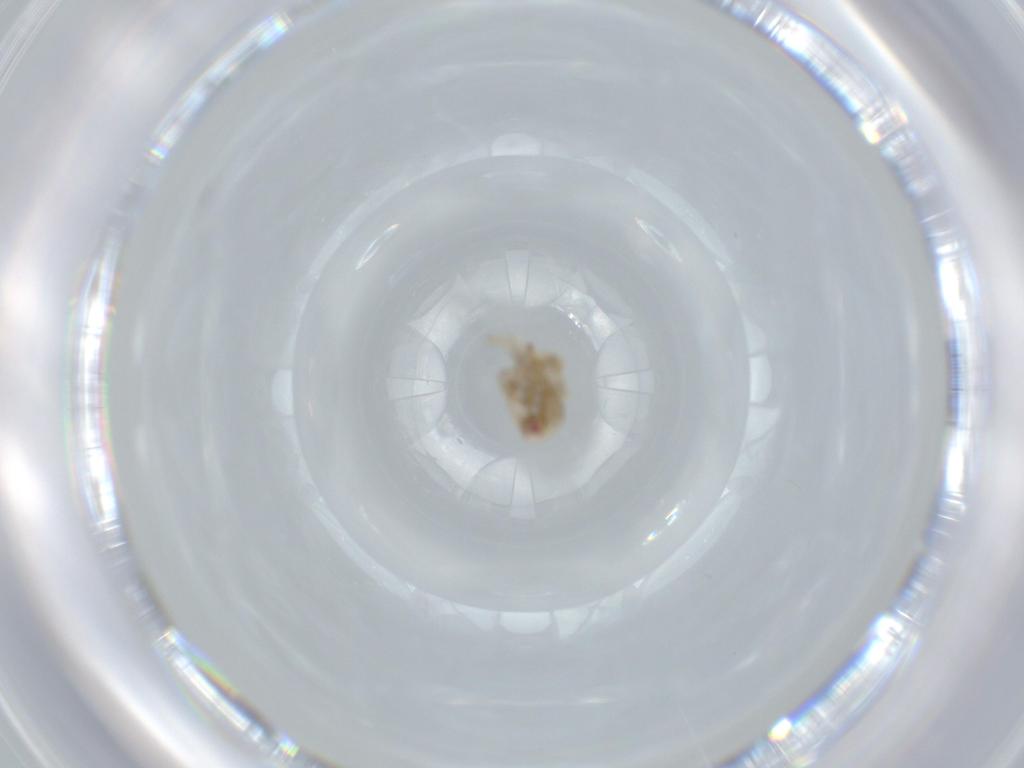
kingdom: Animalia
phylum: Arthropoda
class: Insecta
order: Hemiptera
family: Acanaloniidae
